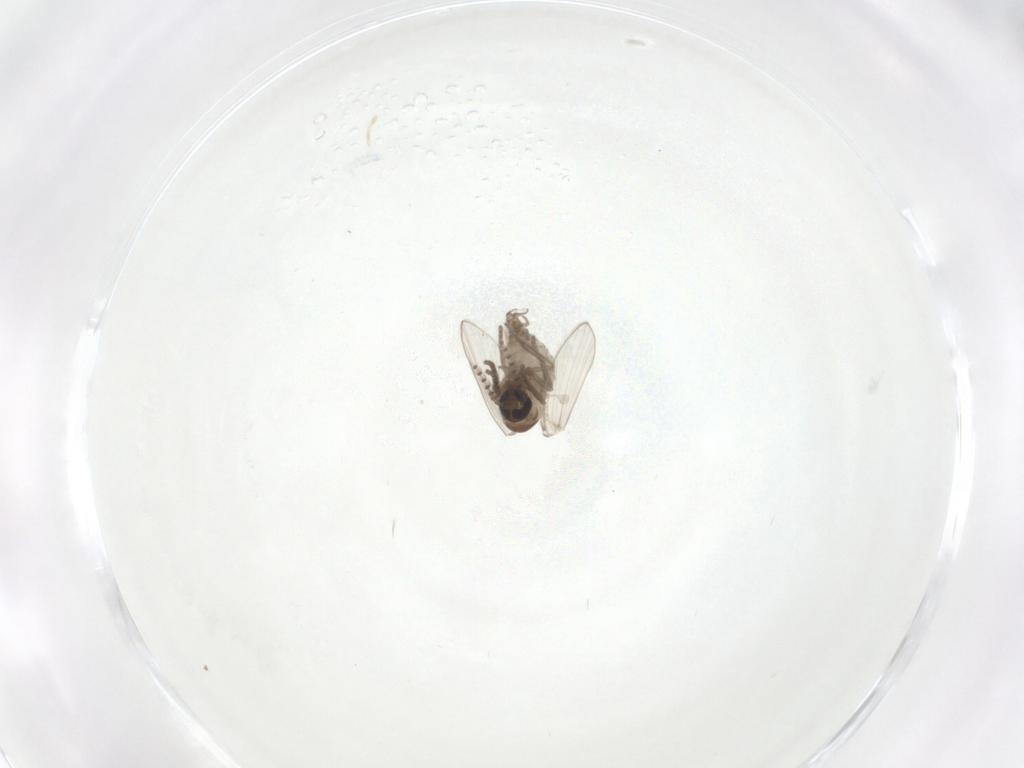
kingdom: Animalia
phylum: Arthropoda
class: Insecta
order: Diptera
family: Psychodidae
